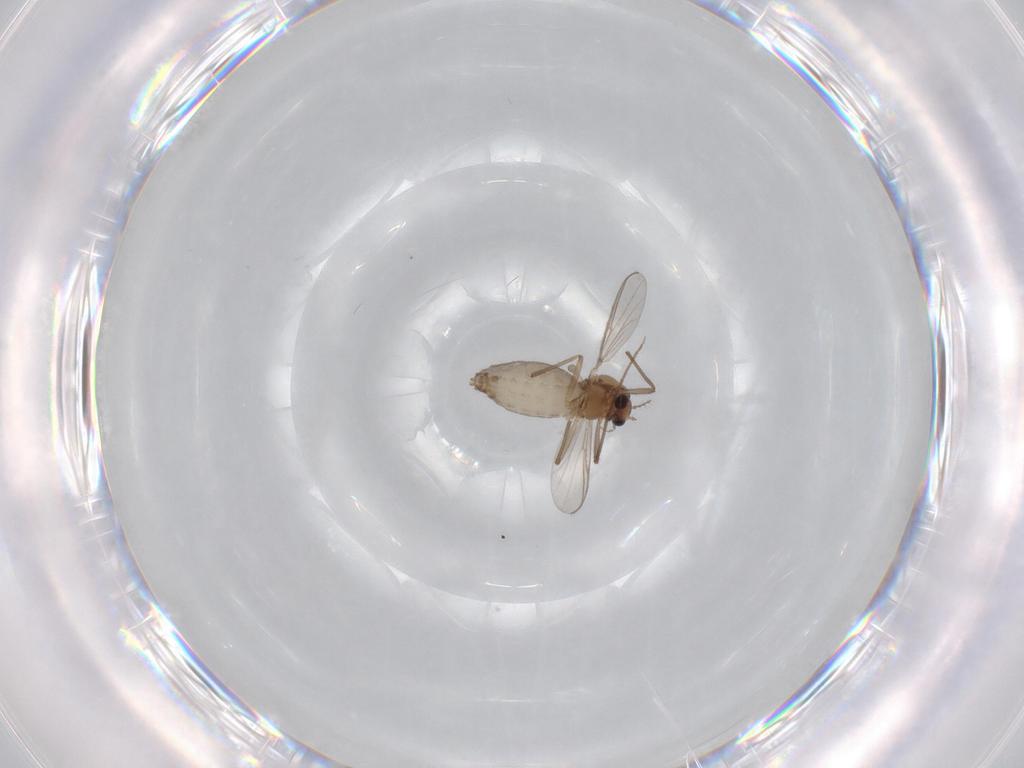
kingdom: Animalia
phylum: Arthropoda
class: Insecta
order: Diptera
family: Chironomidae
